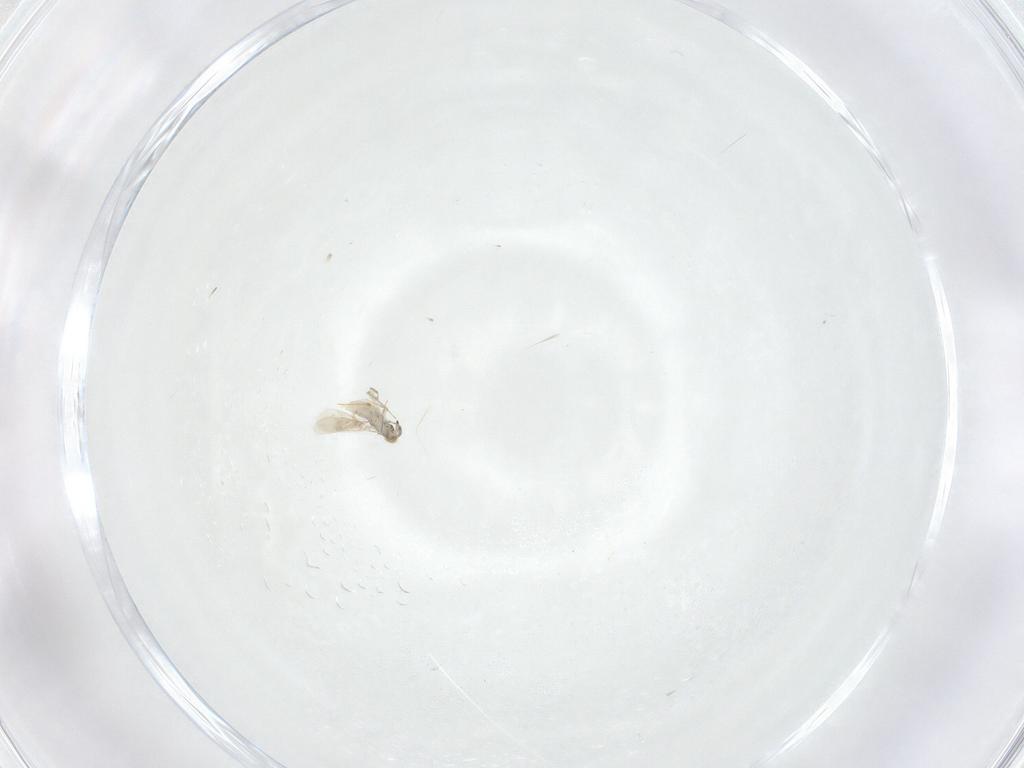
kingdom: Animalia
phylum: Arthropoda
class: Insecta
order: Hymenoptera
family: Aphelinidae
